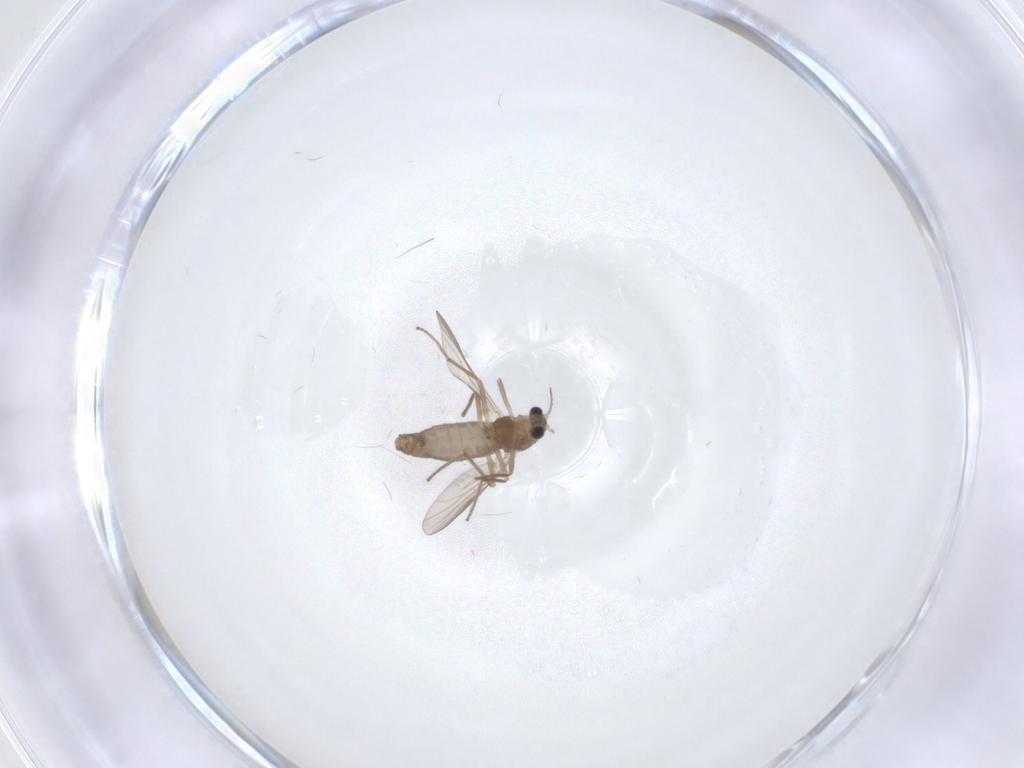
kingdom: Animalia
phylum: Arthropoda
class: Insecta
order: Diptera
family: Chironomidae
